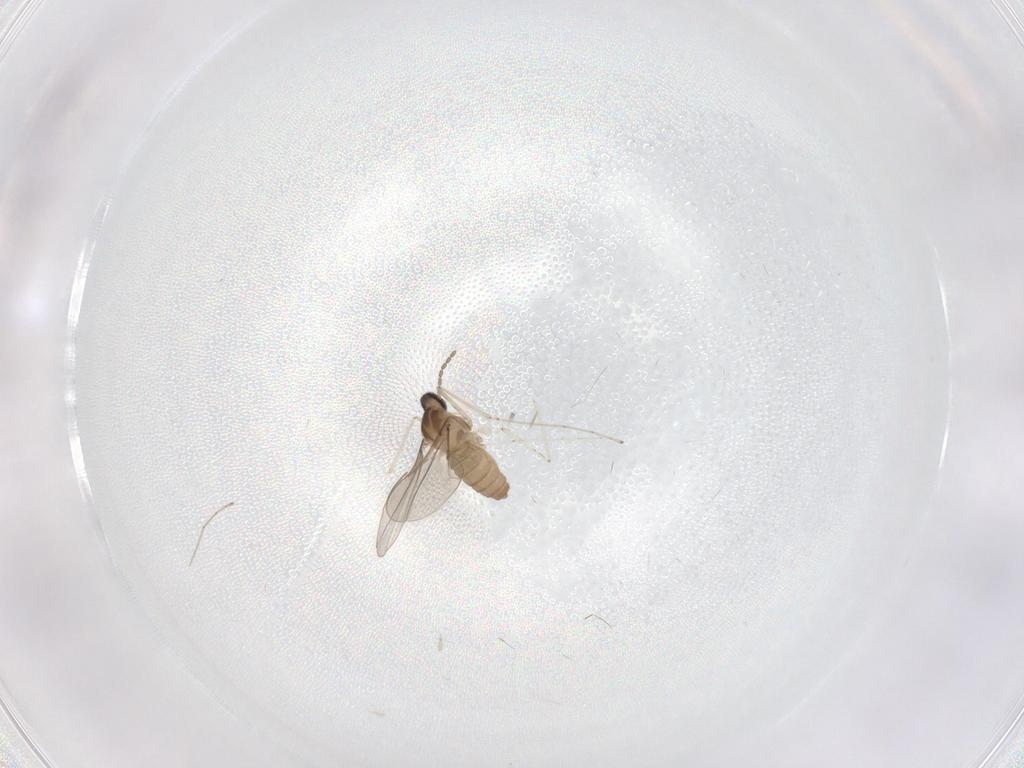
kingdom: Animalia
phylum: Arthropoda
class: Insecta
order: Diptera
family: Cecidomyiidae
